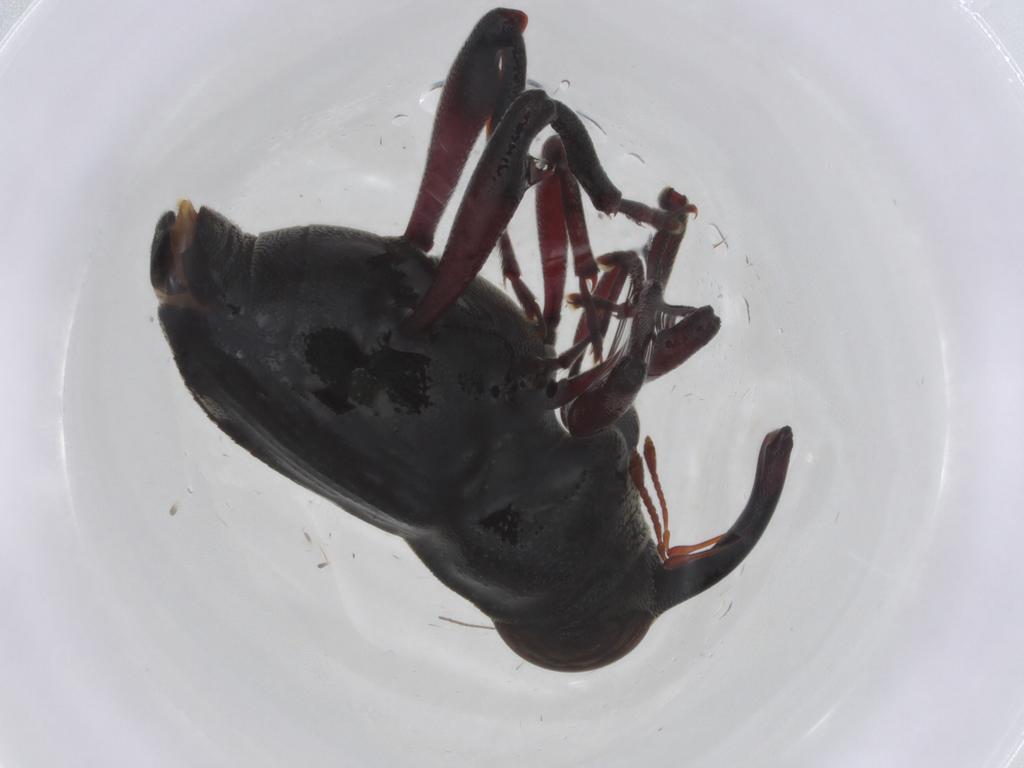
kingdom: Animalia
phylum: Arthropoda
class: Insecta
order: Coleoptera
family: Curculionidae
